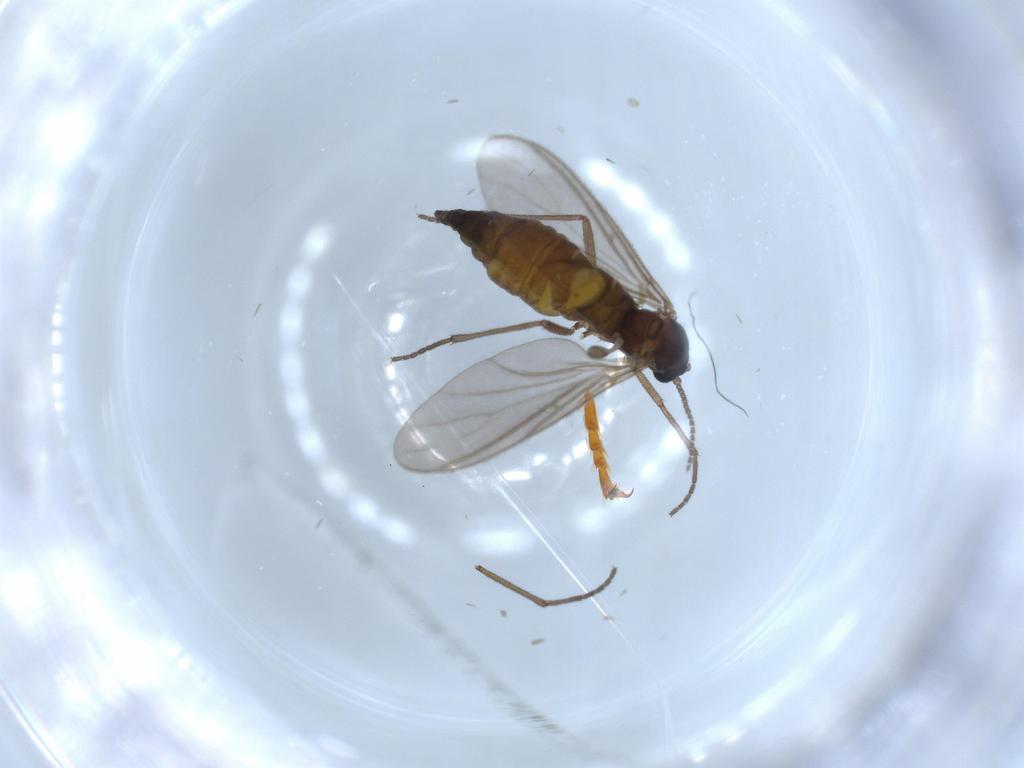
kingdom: Animalia
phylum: Arthropoda
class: Insecta
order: Diptera
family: Sciaridae
